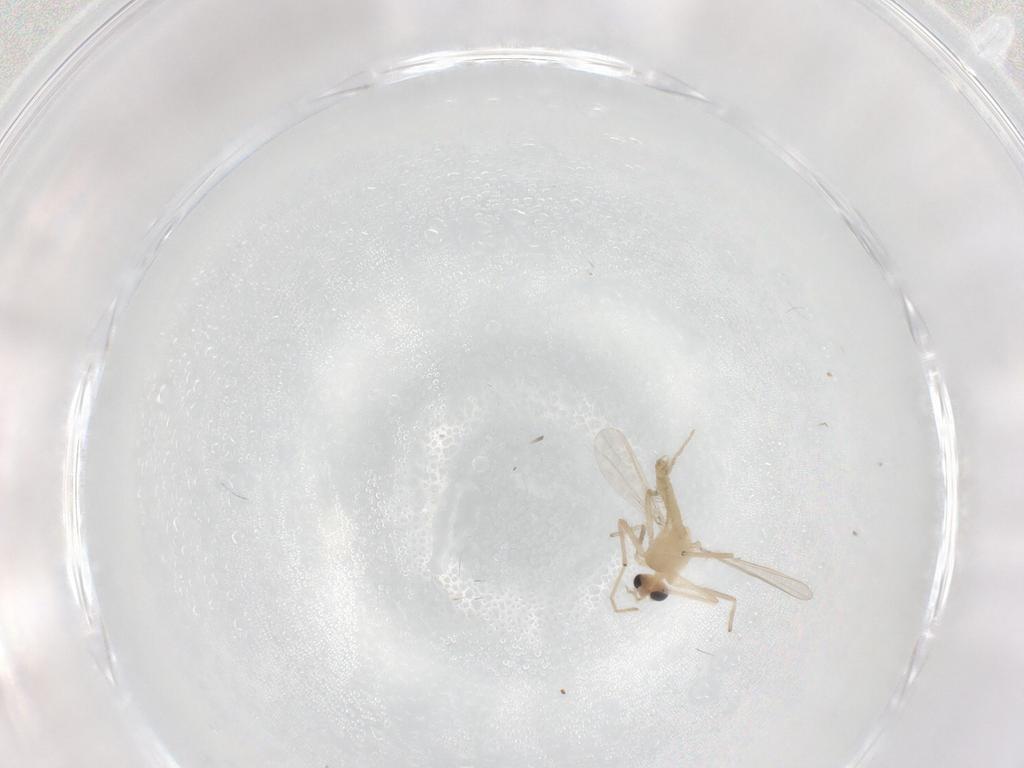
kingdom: Animalia
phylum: Arthropoda
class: Insecta
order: Diptera
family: Chironomidae
